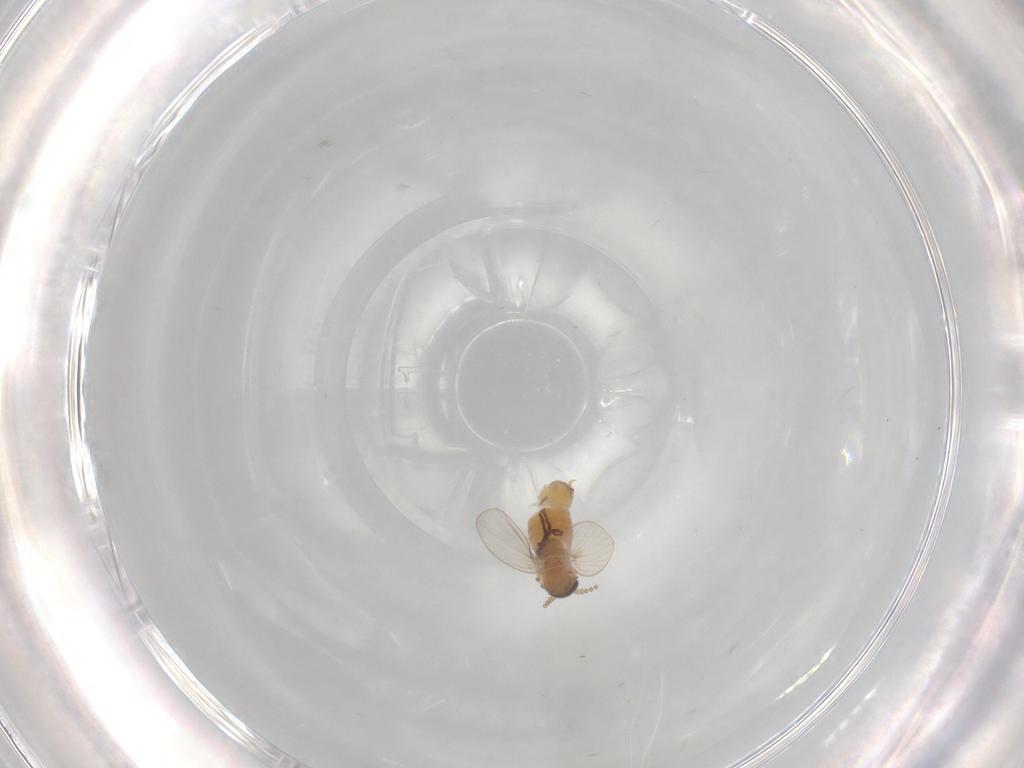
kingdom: Animalia
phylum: Arthropoda
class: Insecta
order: Diptera
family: Psychodidae
